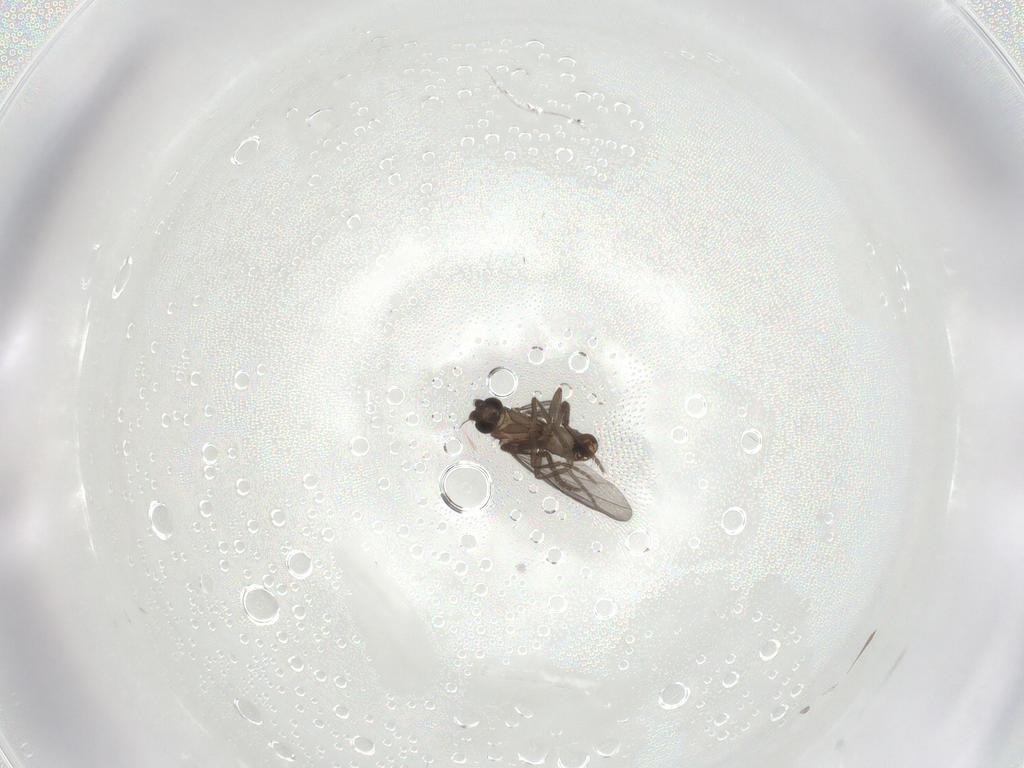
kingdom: Animalia
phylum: Arthropoda
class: Insecta
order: Diptera
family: Phoridae
